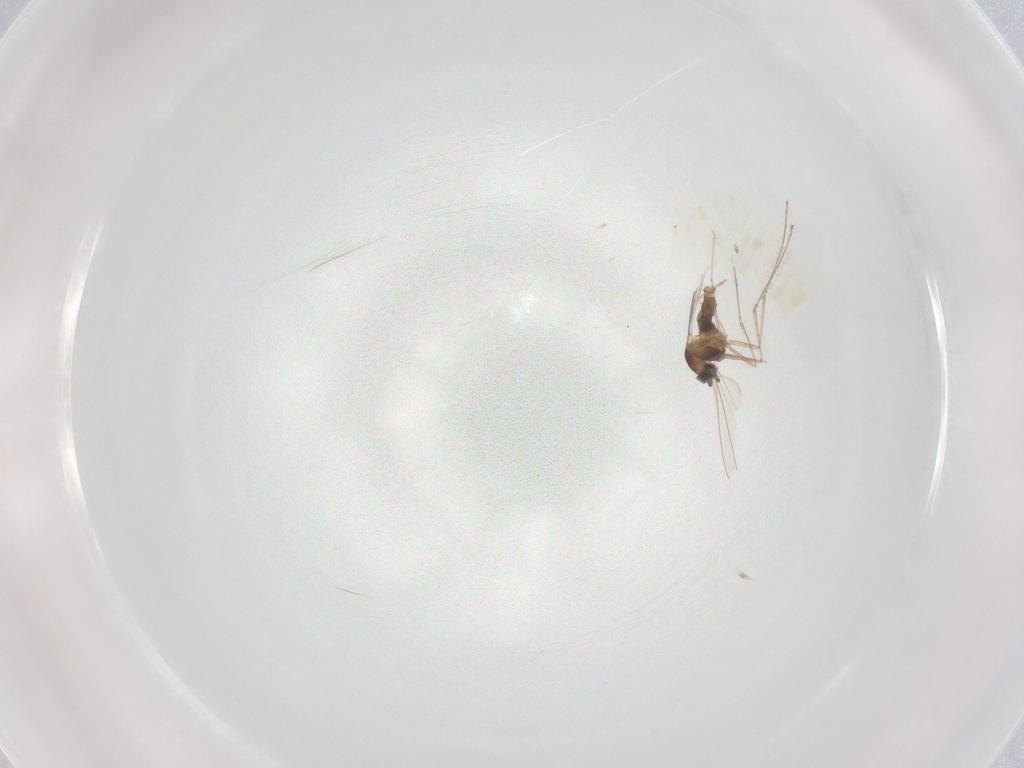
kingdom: Animalia
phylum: Arthropoda
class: Insecta
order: Diptera
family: Cecidomyiidae
